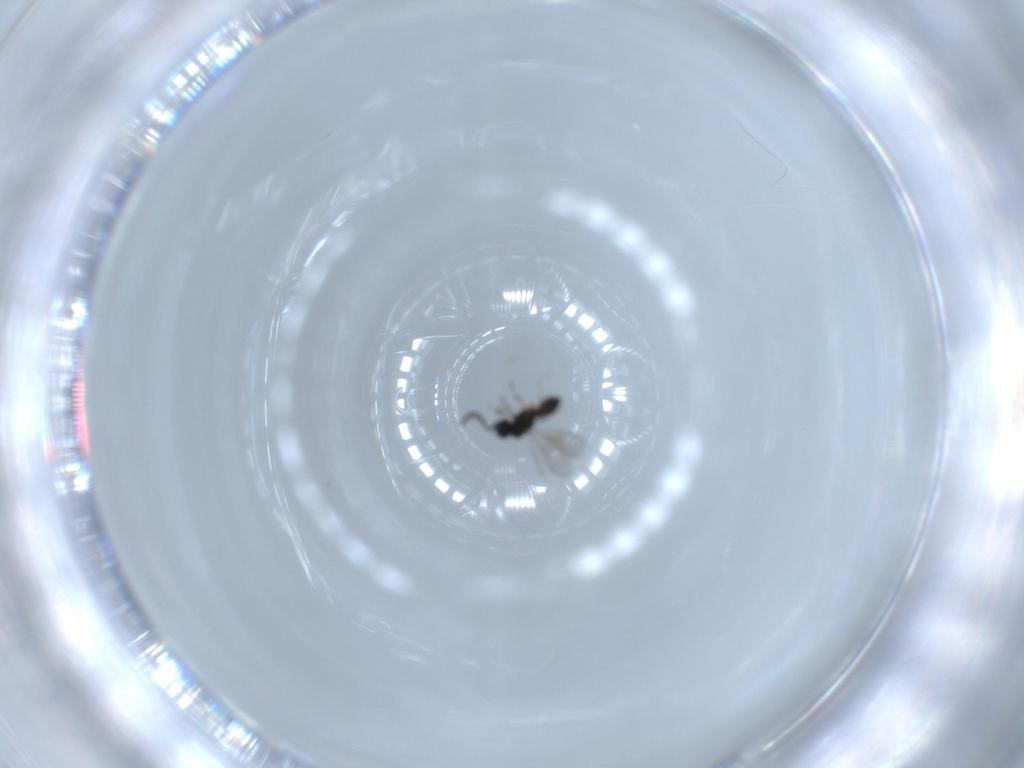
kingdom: Animalia
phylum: Arthropoda
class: Insecta
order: Hymenoptera
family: Scelionidae
